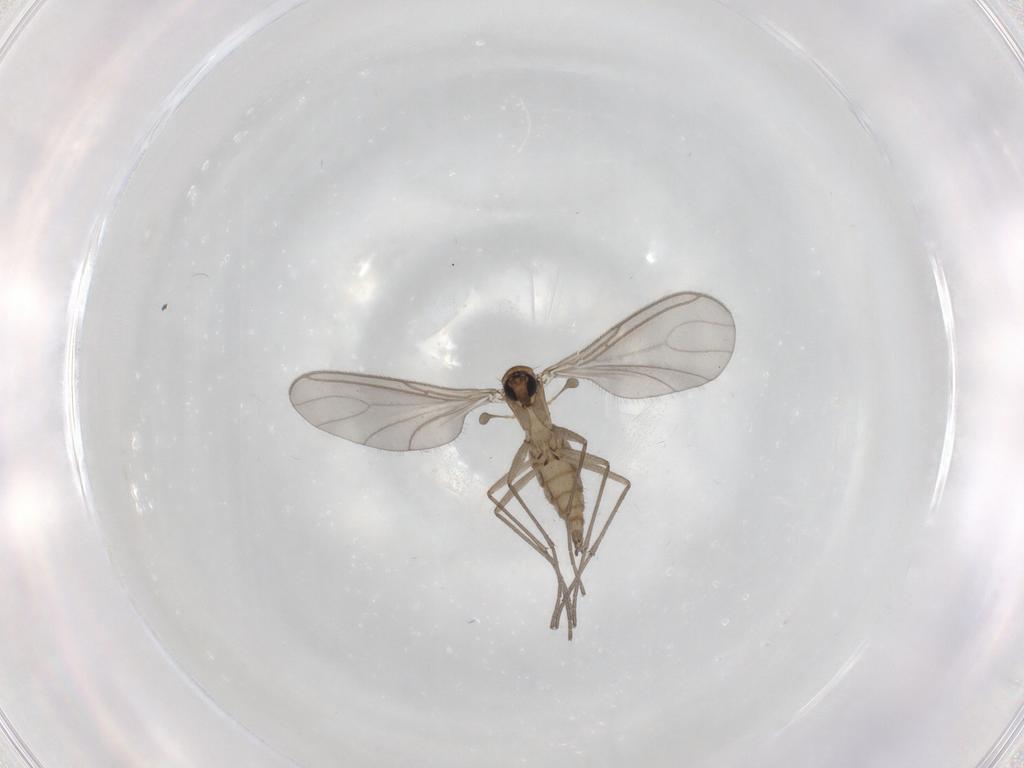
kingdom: Animalia
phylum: Arthropoda
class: Insecta
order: Diptera
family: Sciaridae
